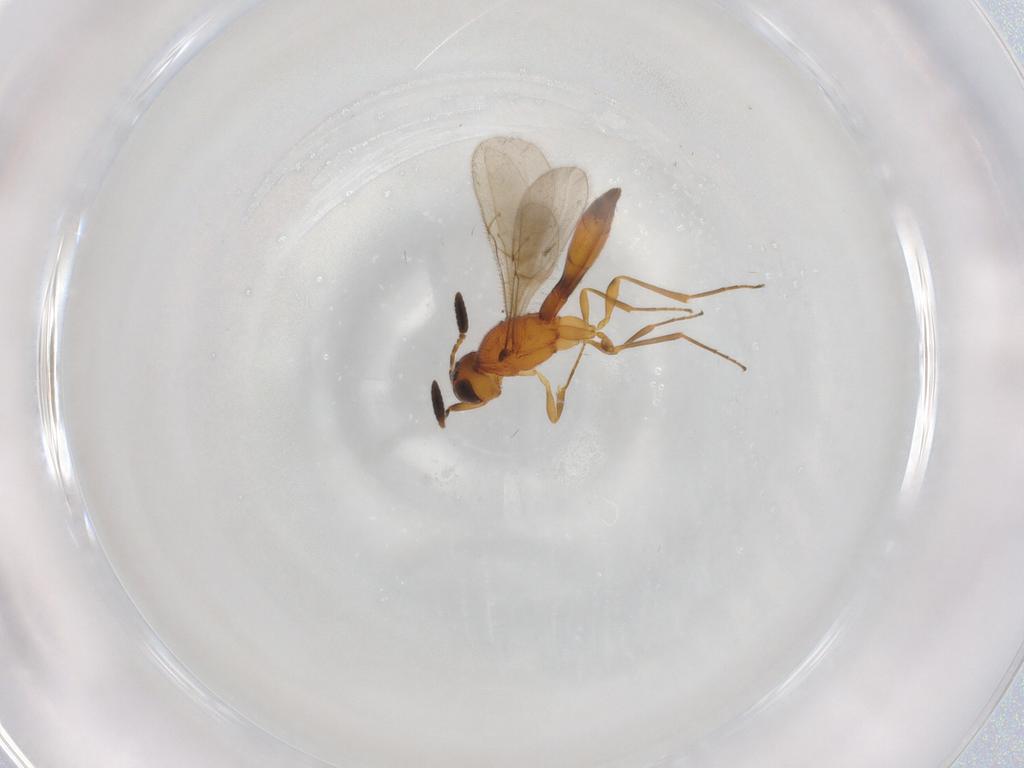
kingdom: Animalia
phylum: Arthropoda
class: Insecta
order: Hymenoptera
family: Scelionidae
